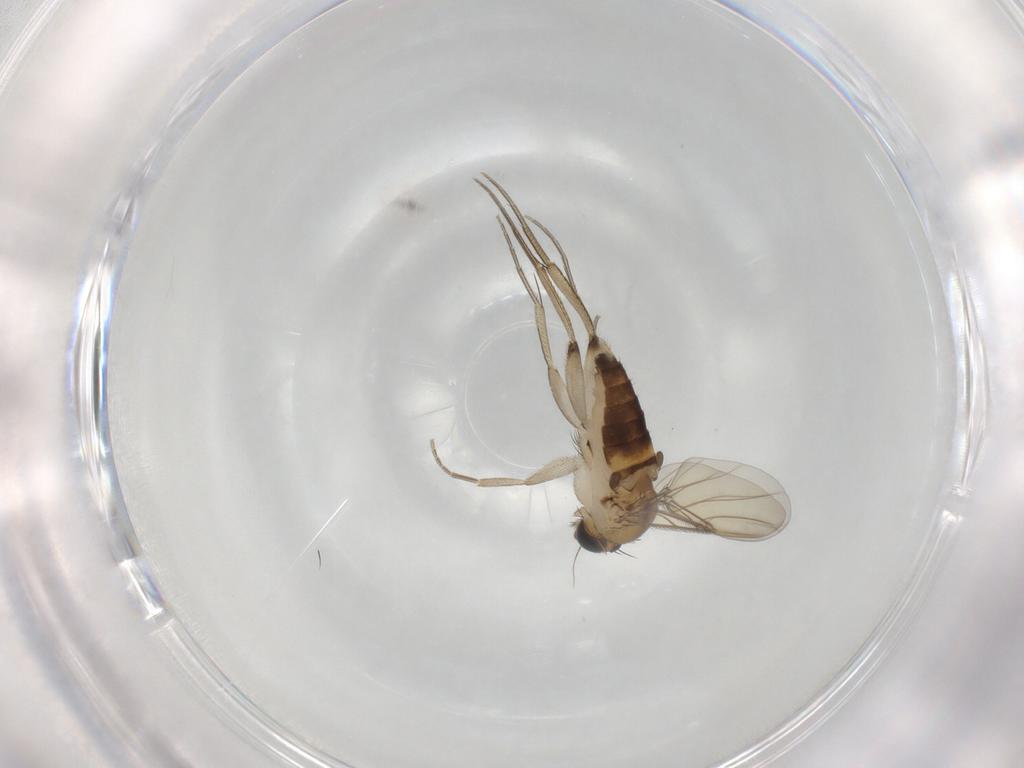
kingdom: Animalia
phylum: Arthropoda
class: Insecta
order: Diptera
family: Phoridae
